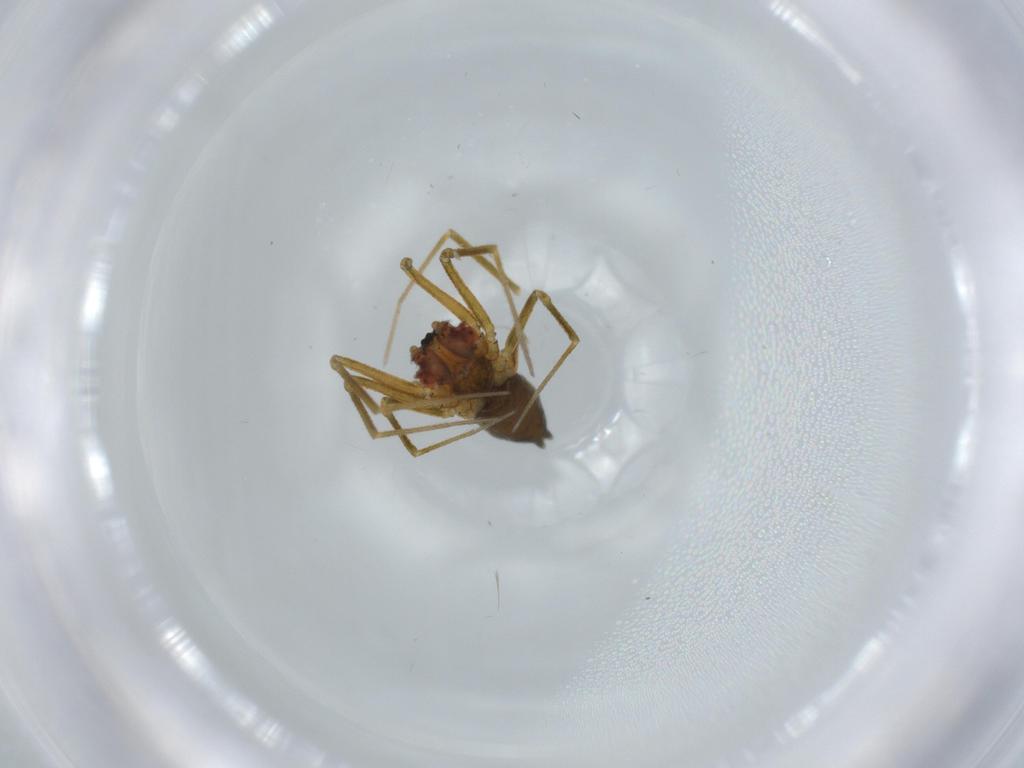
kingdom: Animalia
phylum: Arthropoda
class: Arachnida
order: Araneae
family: Linyphiidae
